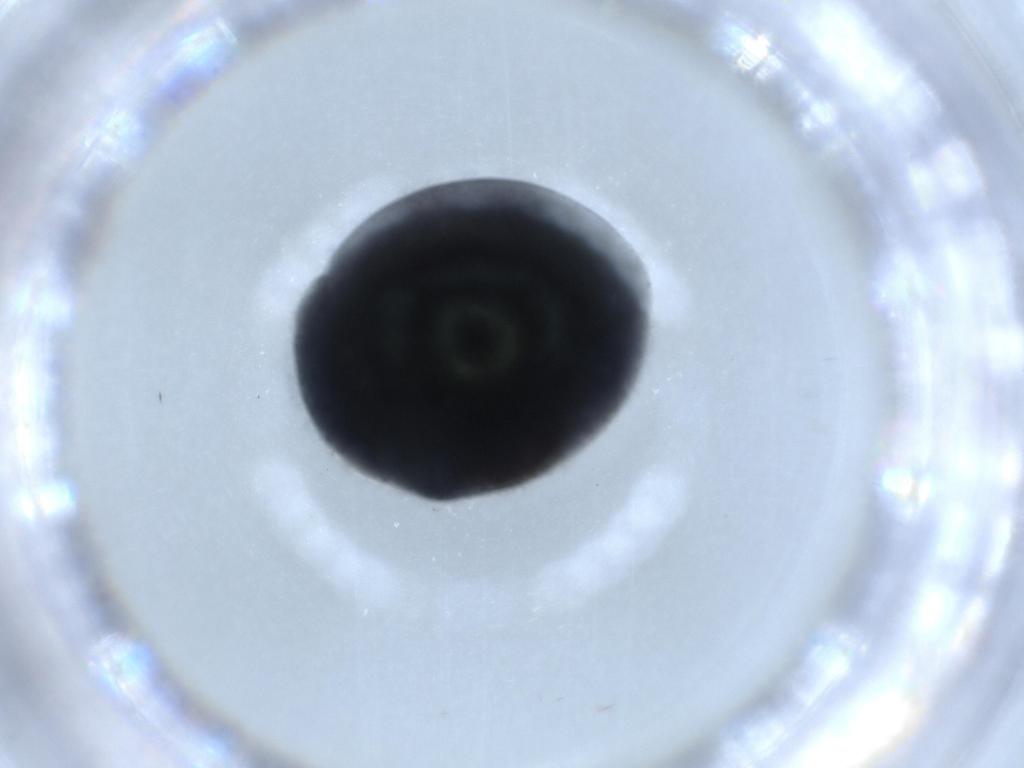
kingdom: Animalia
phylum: Arthropoda
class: Insecta
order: Coleoptera
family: Coccinellidae
